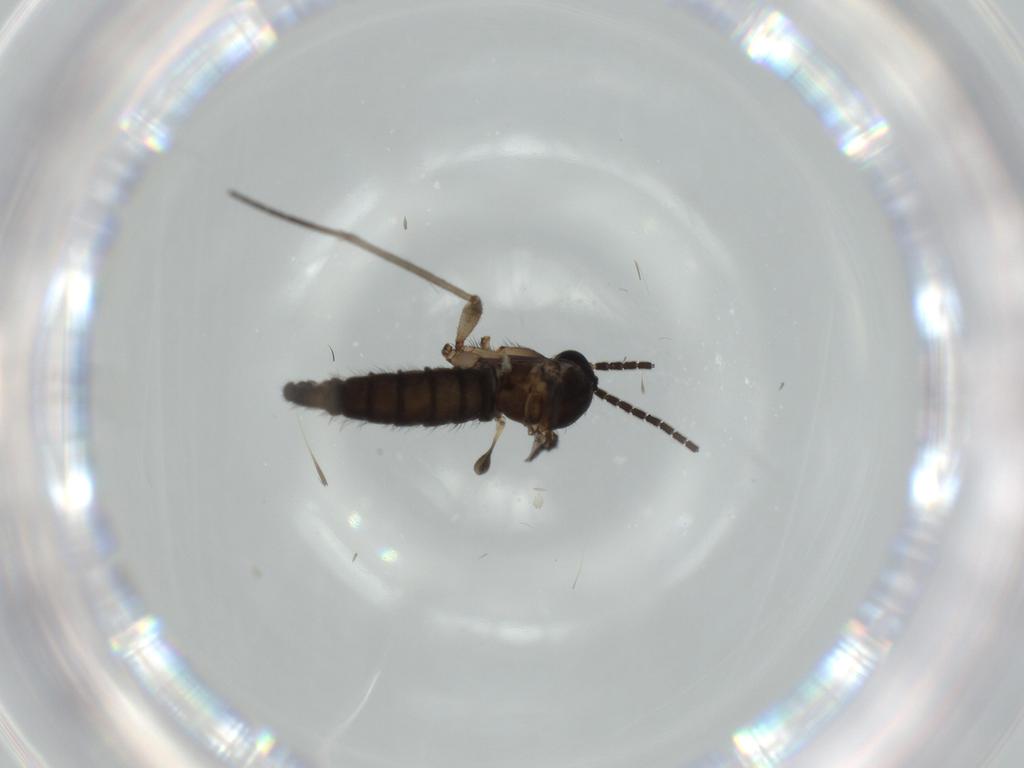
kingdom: Animalia
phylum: Arthropoda
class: Insecta
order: Diptera
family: Sciaridae
